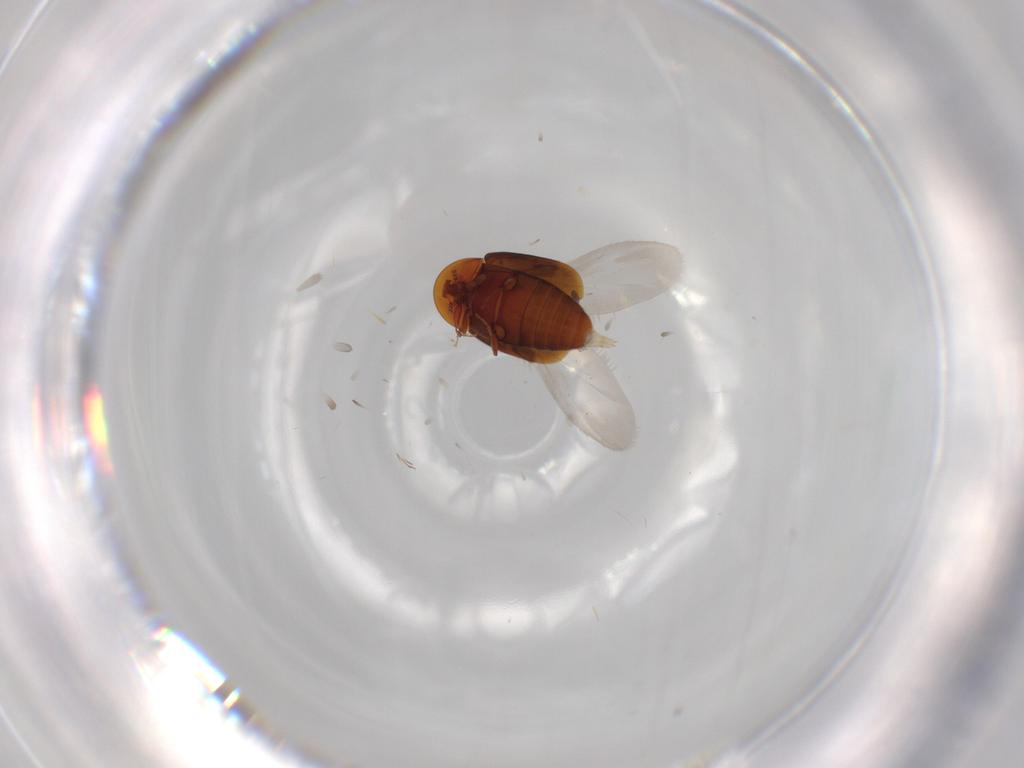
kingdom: Animalia
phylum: Arthropoda
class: Insecta
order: Coleoptera
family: Corylophidae
